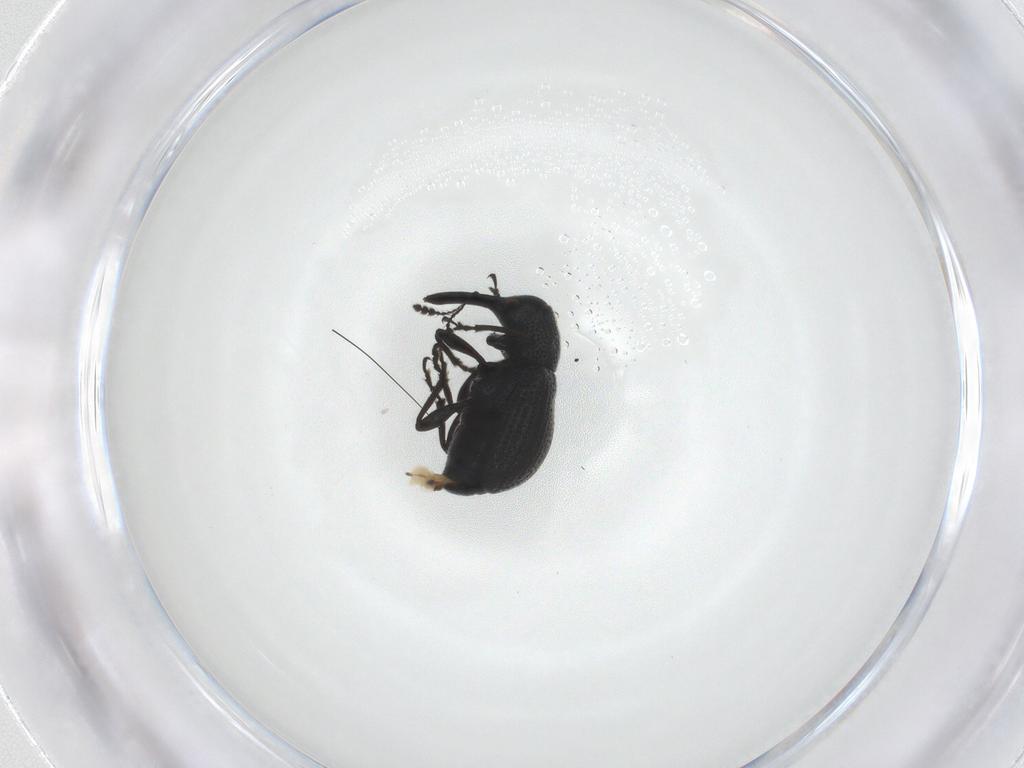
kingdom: Animalia
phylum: Arthropoda
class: Insecta
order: Coleoptera
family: Attelabidae
